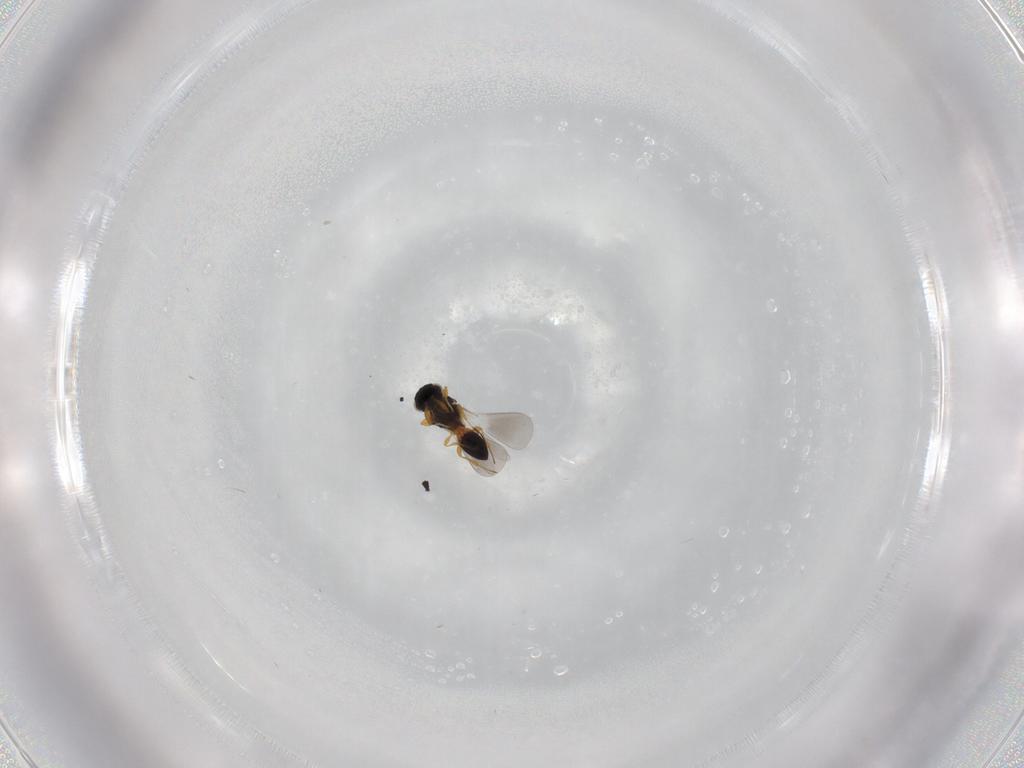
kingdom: Animalia
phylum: Arthropoda
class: Insecta
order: Hymenoptera
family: Platygastridae
